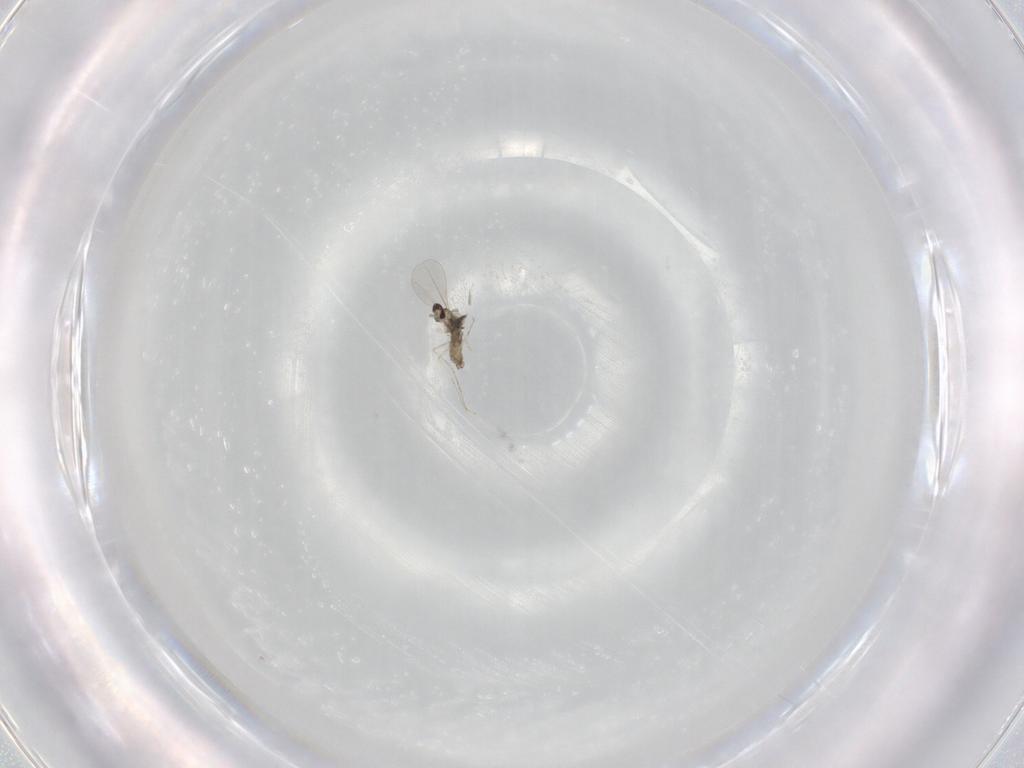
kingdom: Animalia
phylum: Arthropoda
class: Insecta
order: Diptera
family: Chironomidae
